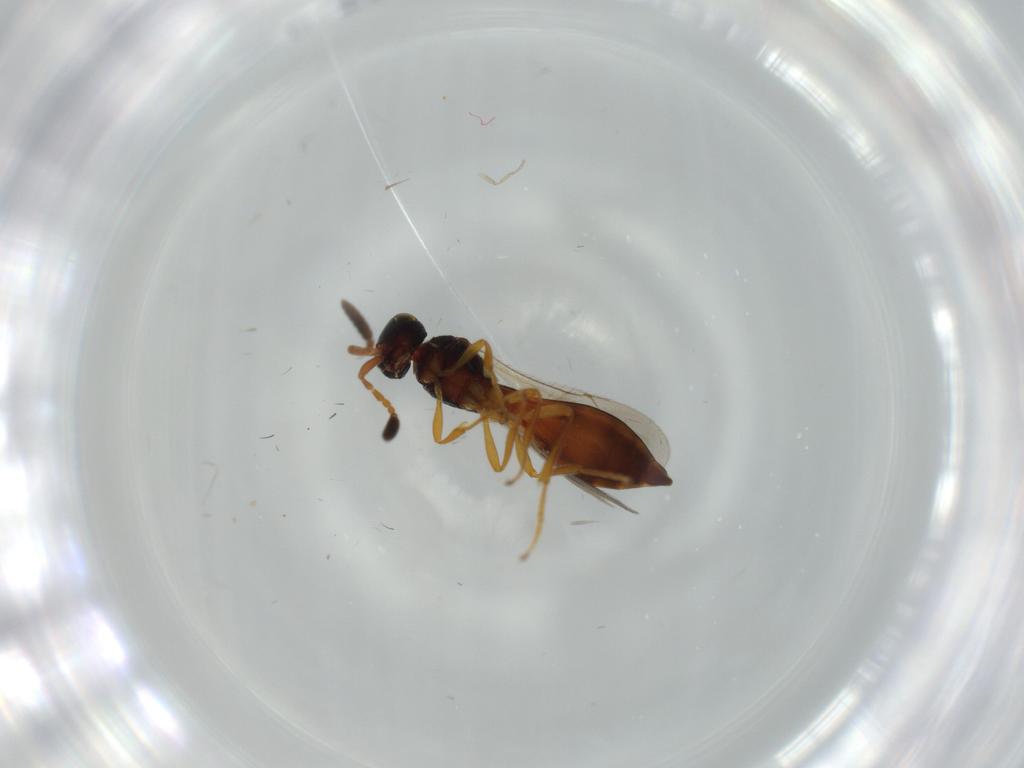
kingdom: Animalia
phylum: Arthropoda
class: Insecta
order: Hymenoptera
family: Scelionidae
